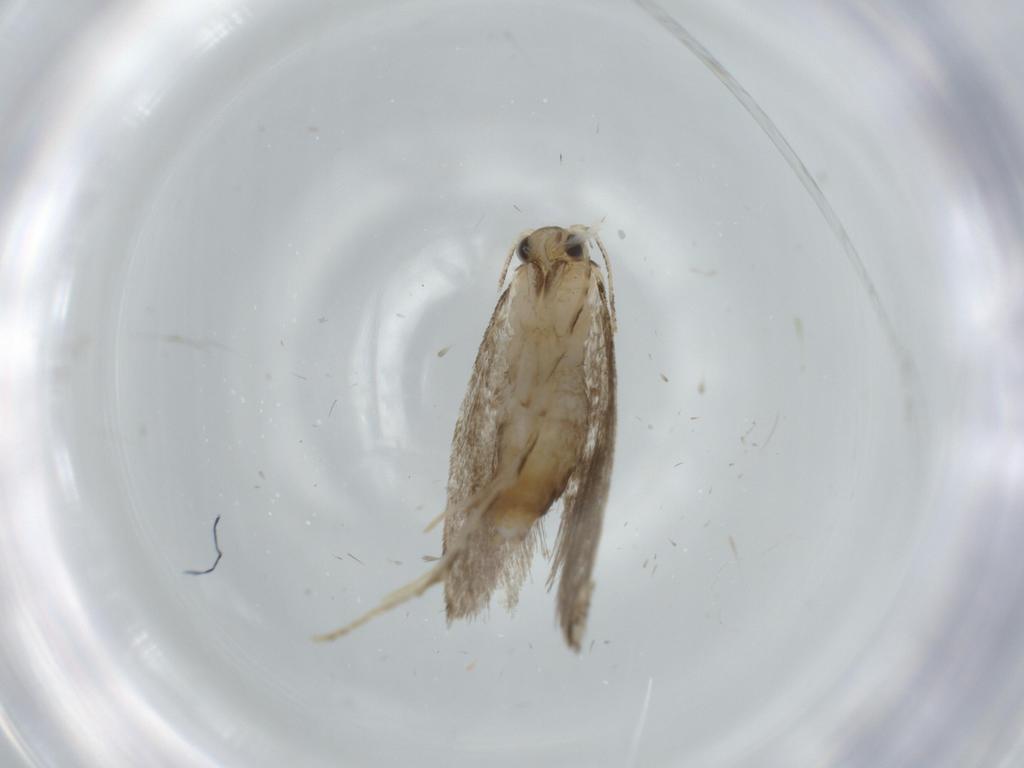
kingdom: Animalia
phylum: Arthropoda
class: Insecta
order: Lepidoptera
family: Tineidae
